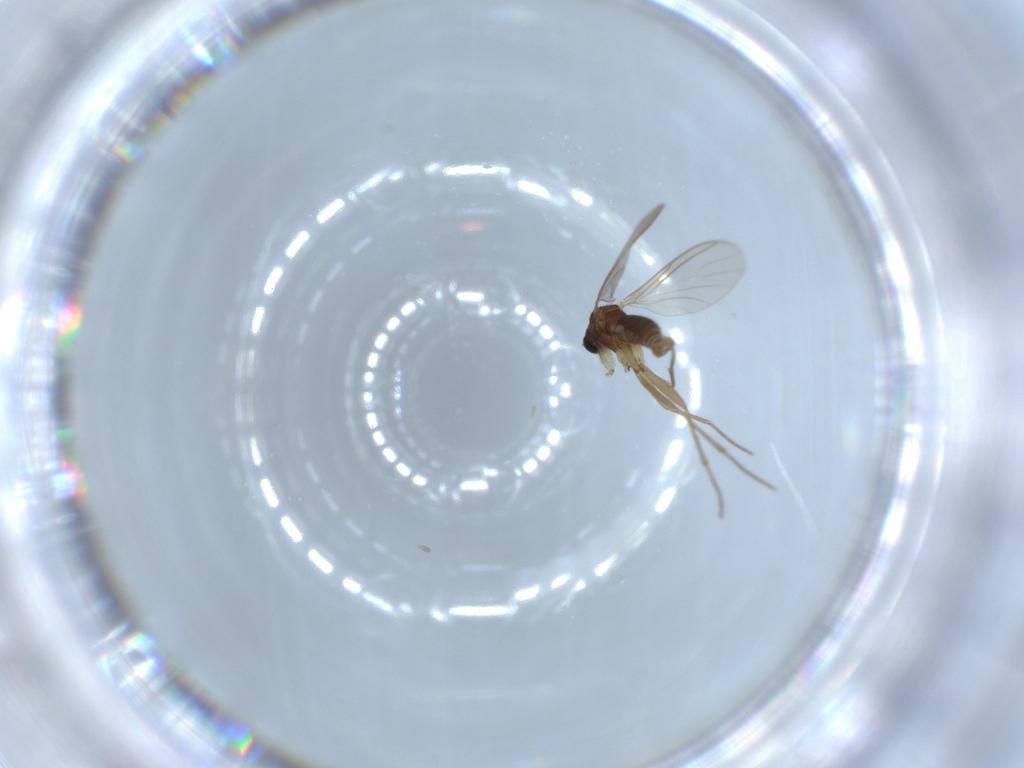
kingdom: Animalia
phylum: Arthropoda
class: Insecta
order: Diptera
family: Sciaridae
